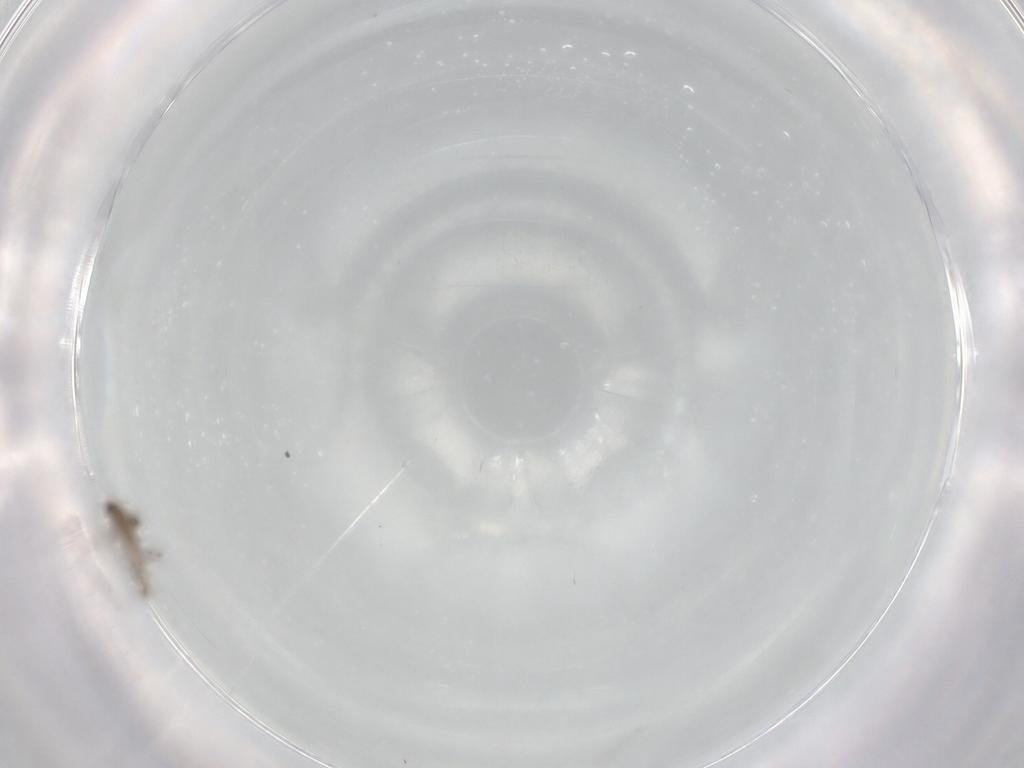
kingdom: Animalia
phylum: Arthropoda
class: Insecta
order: Diptera
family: Chironomidae
